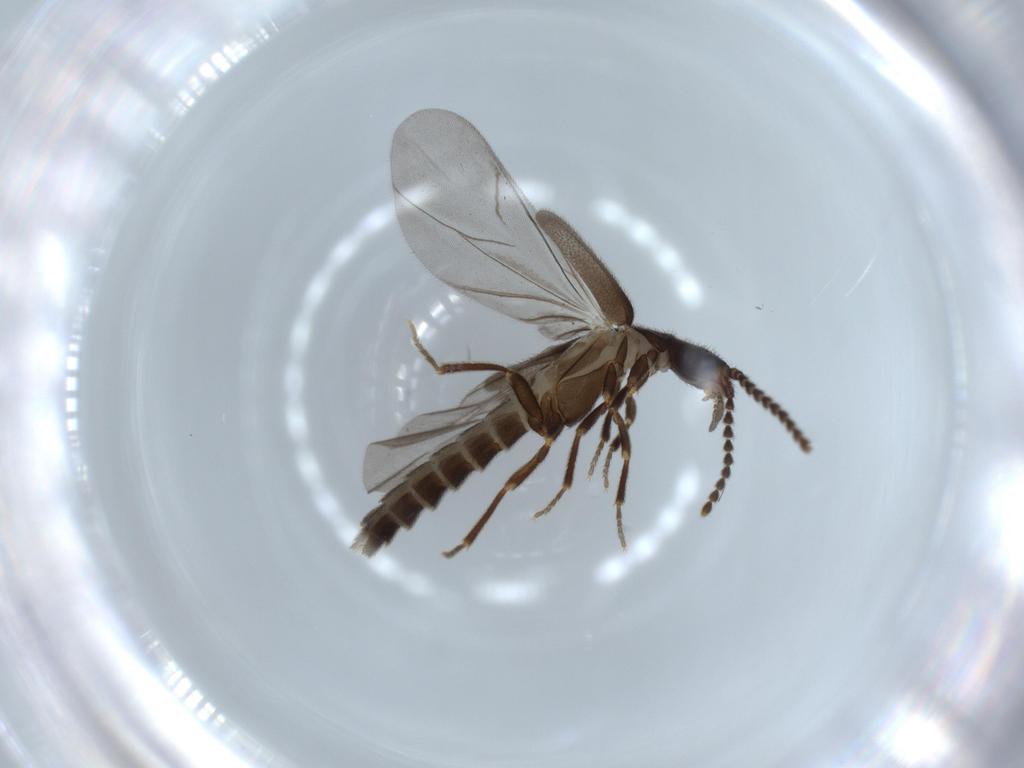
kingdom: Animalia
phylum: Arthropoda
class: Insecta
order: Coleoptera
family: Omethidae
